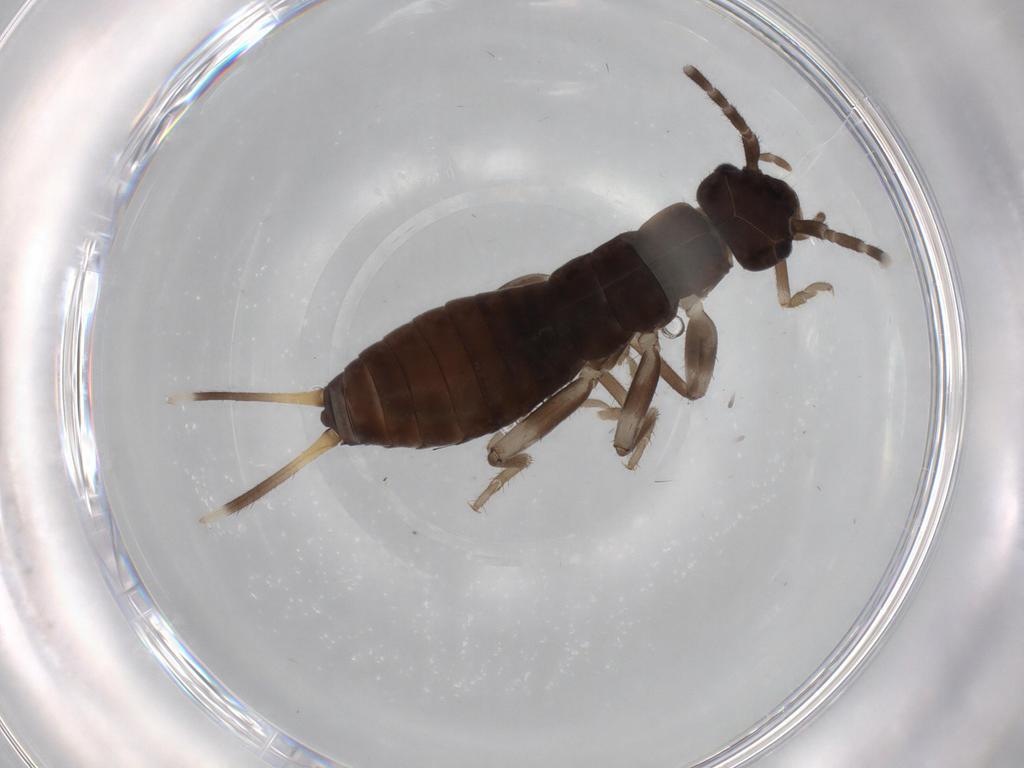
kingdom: Animalia
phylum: Arthropoda
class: Insecta
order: Dermaptera
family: Spongiphoridae
